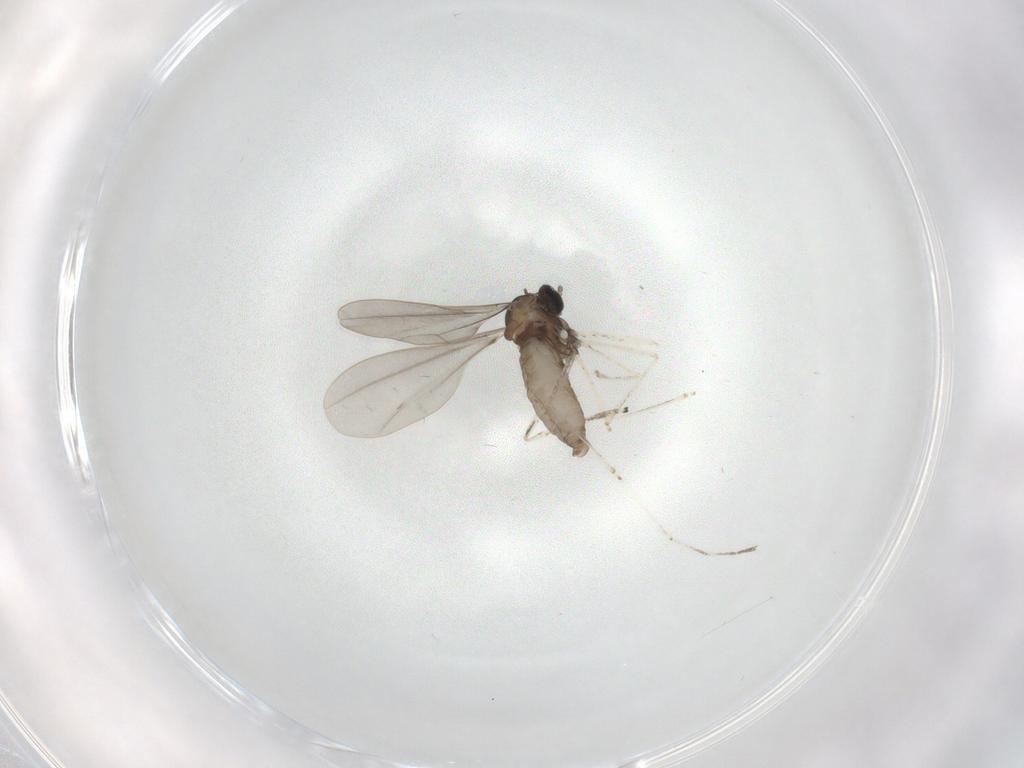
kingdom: Animalia
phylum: Arthropoda
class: Insecta
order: Diptera
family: Cecidomyiidae
